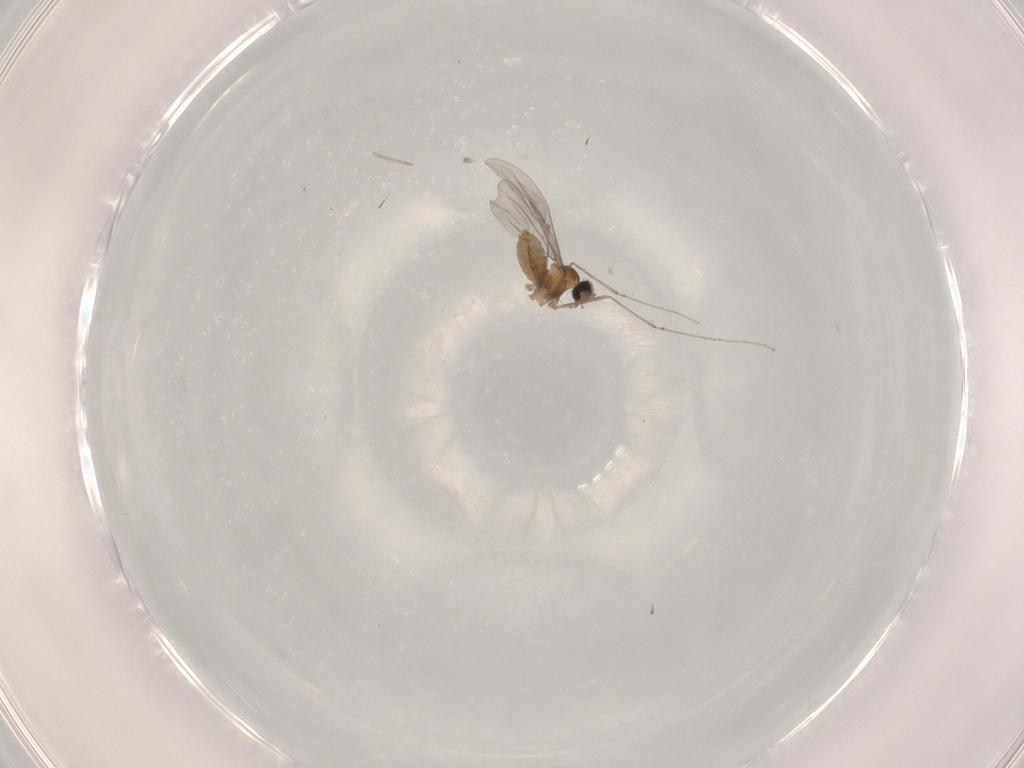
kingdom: Animalia
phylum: Arthropoda
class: Insecta
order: Diptera
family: Cecidomyiidae
